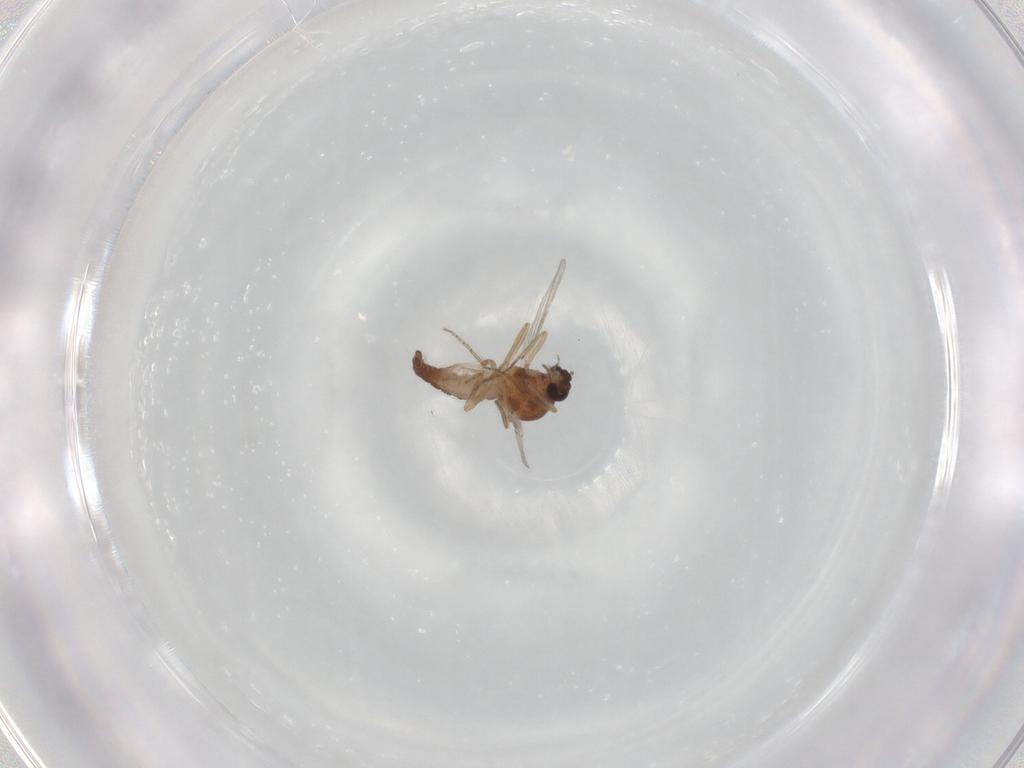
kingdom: Animalia
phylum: Arthropoda
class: Insecta
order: Diptera
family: Ceratopogonidae
